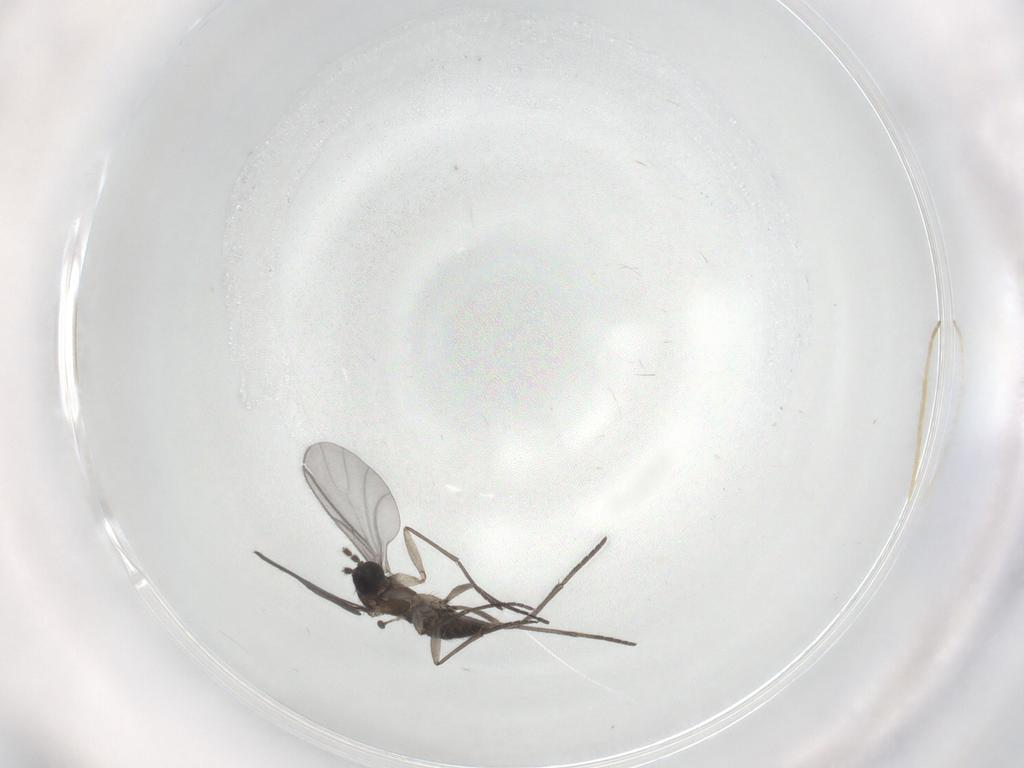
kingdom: Animalia
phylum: Arthropoda
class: Insecta
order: Diptera
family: Chironomidae
